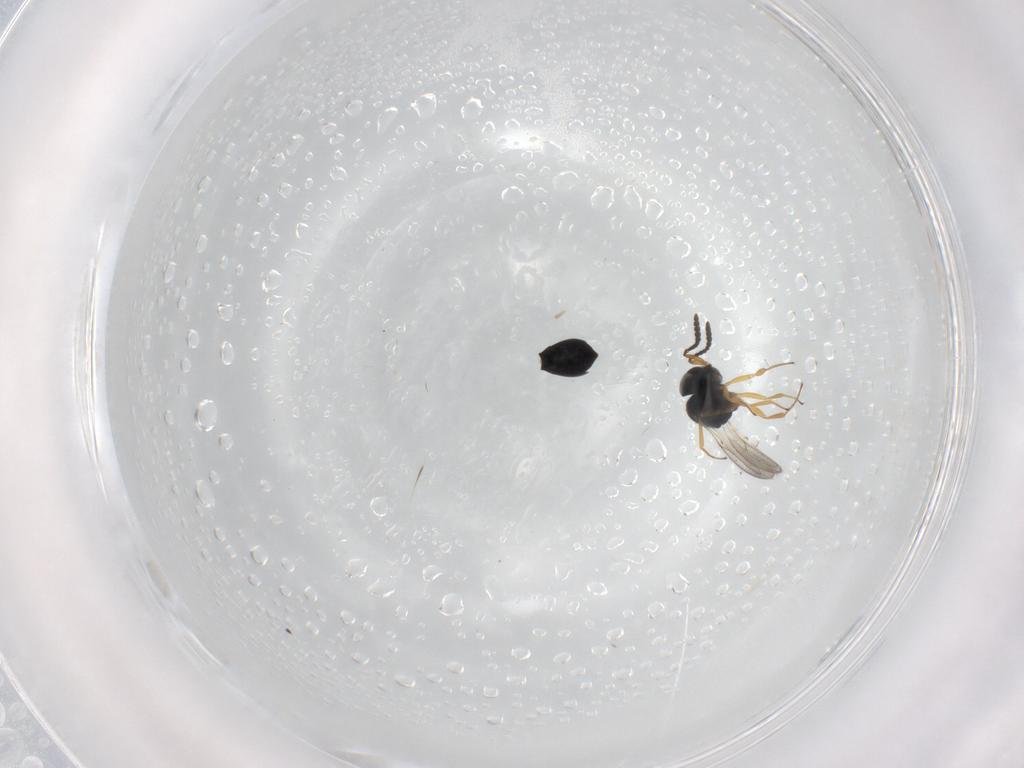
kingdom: Animalia
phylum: Arthropoda
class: Insecta
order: Hymenoptera
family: Scelionidae
